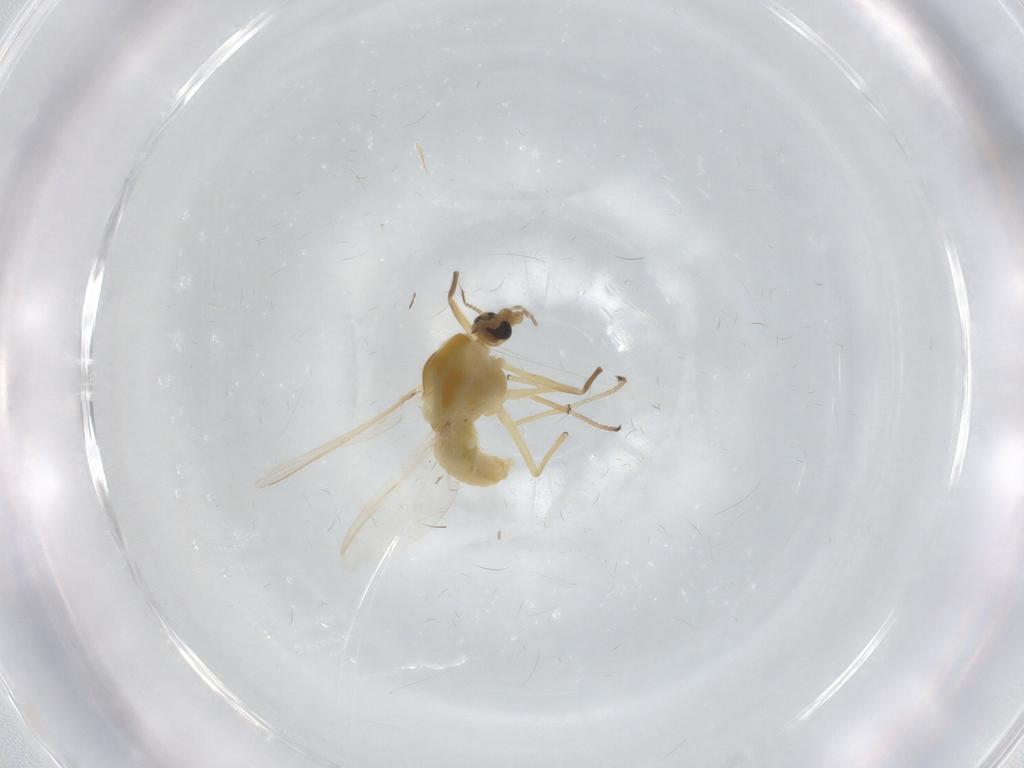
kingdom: Animalia
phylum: Arthropoda
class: Insecta
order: Diptera
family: Chironomidae
